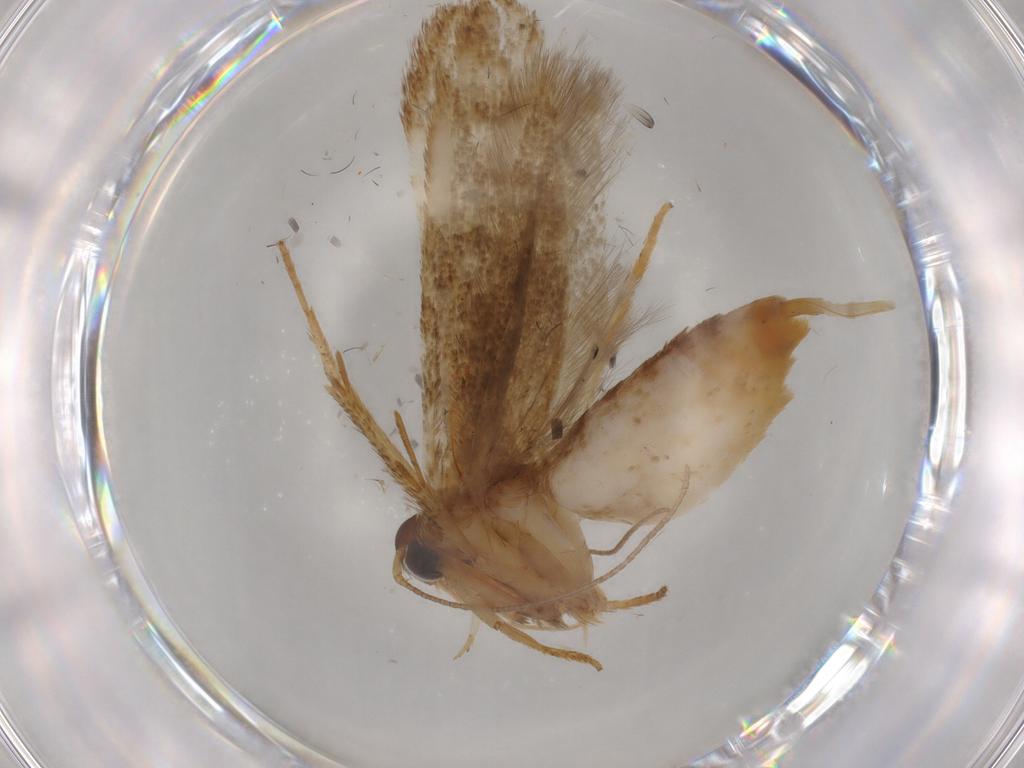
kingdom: Animalia
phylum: Arthropoda
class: Insecta
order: Lepidoptera
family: Blastobasidae
